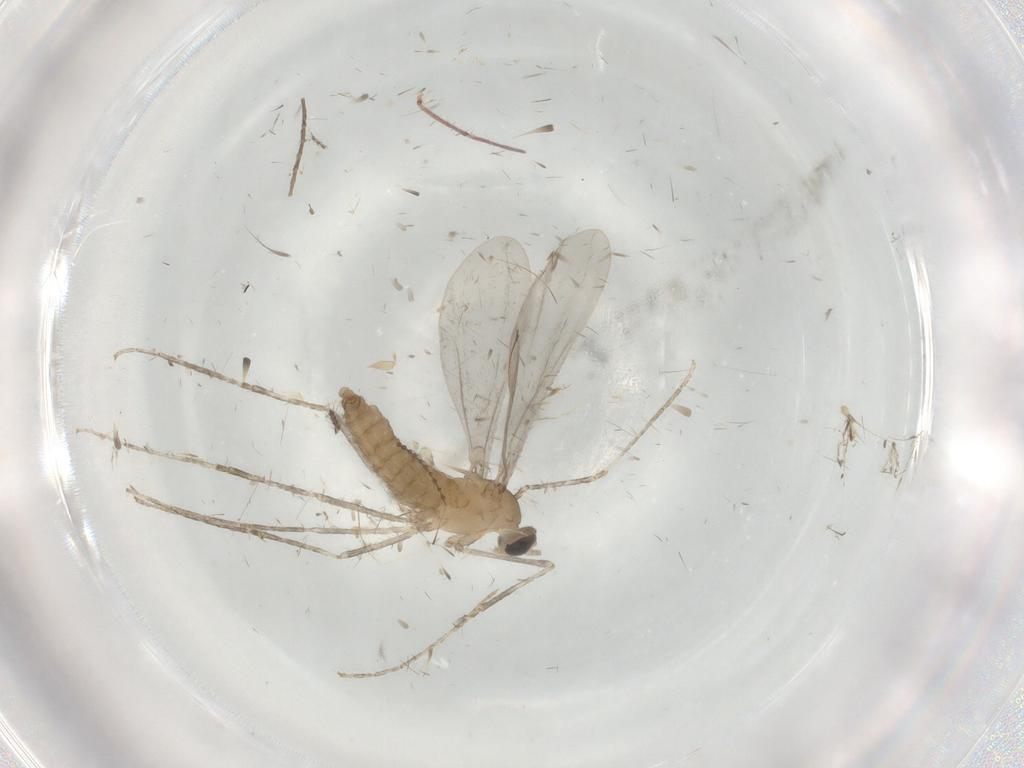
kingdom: Animalia
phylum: Arthropoda
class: Insecta
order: Diptera
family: Cecidomyiidae
